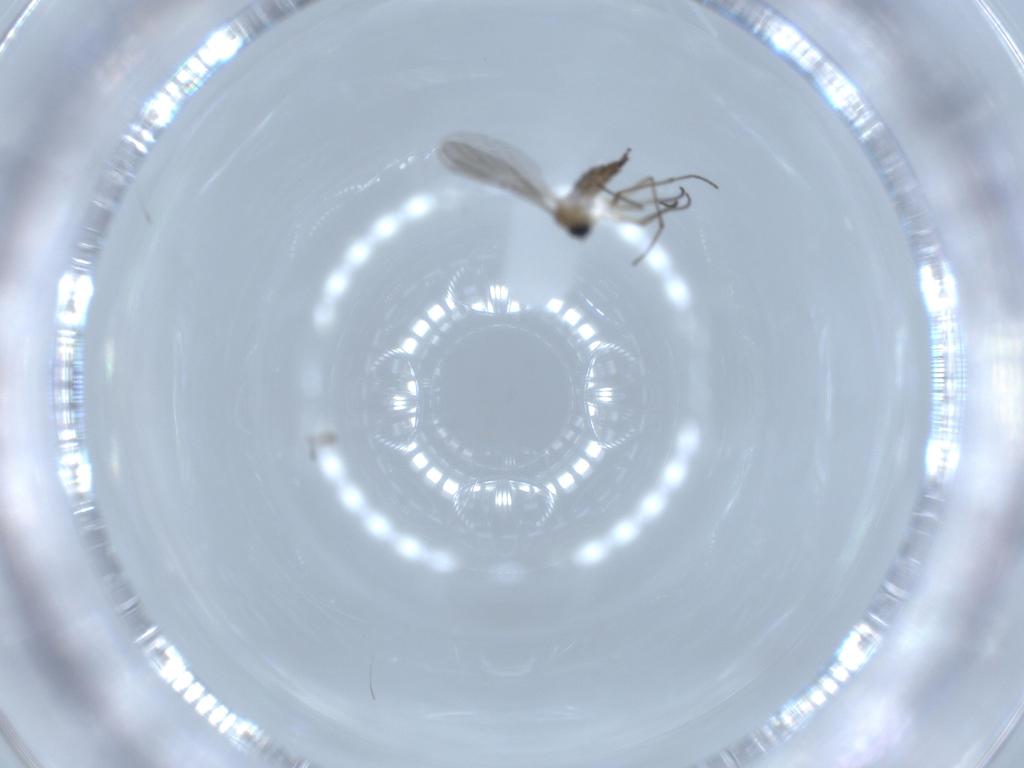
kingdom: Animalia
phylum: Arthropoda
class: Insecta
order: Diptera
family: Sciaridae
